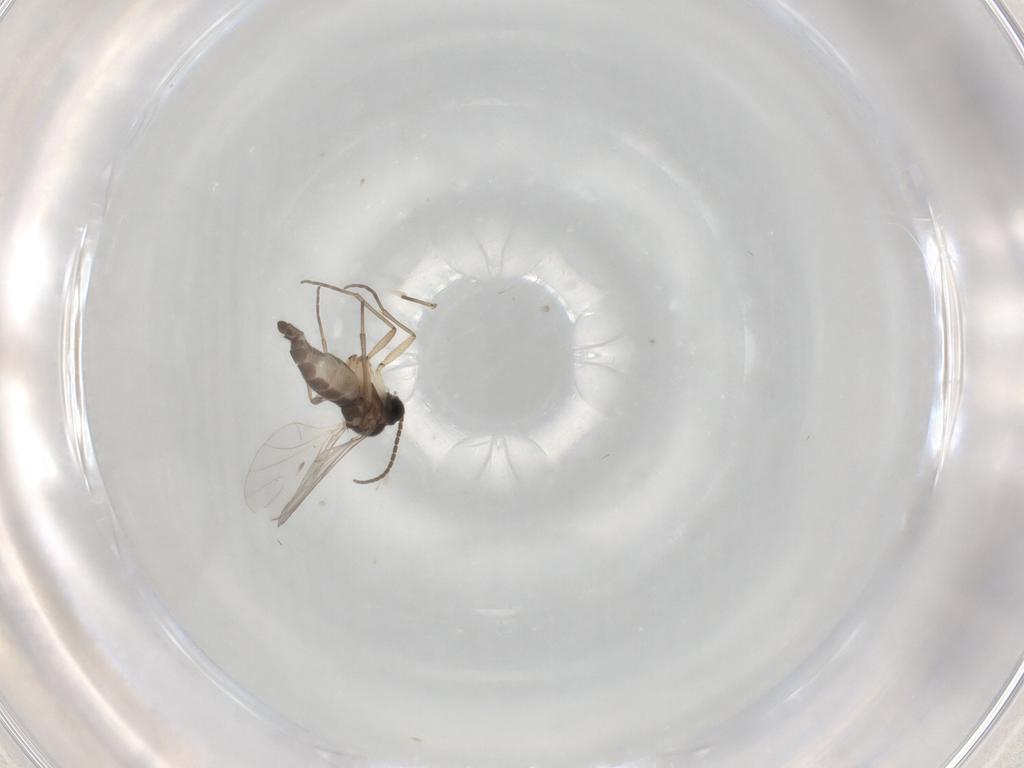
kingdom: Animalia
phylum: Arthropoda
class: Insecta
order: Diptera
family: Sciaridae
